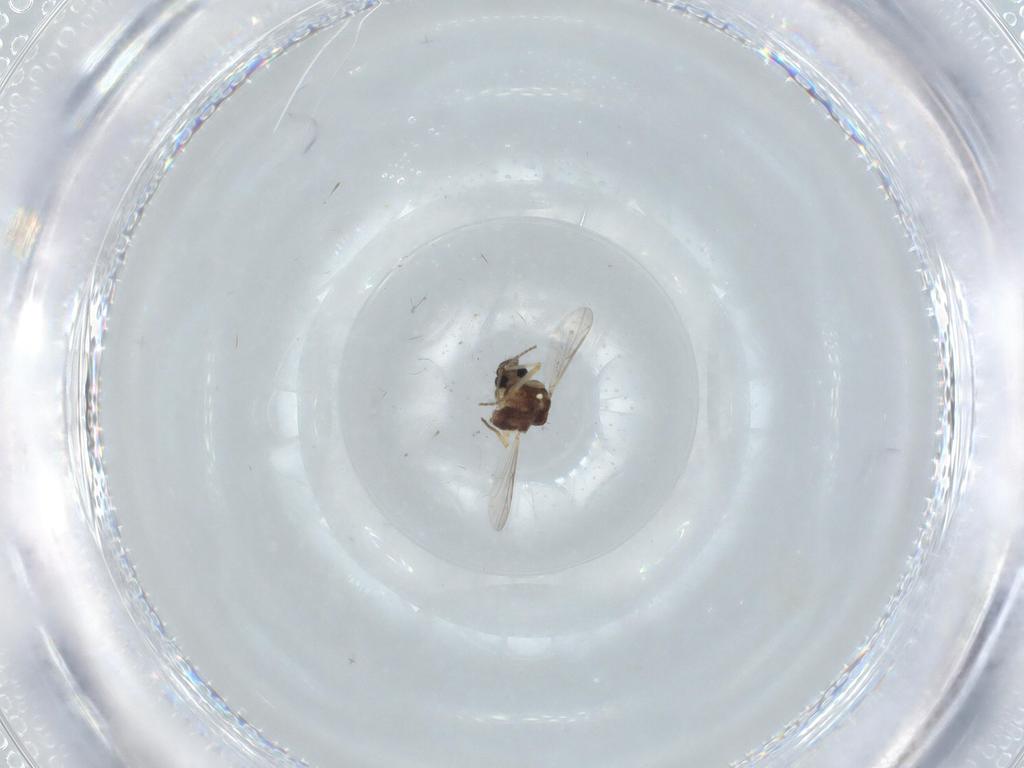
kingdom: Animalia
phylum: Arthropoda
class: Insecta
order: Diptera
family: Ceratopogonidae
